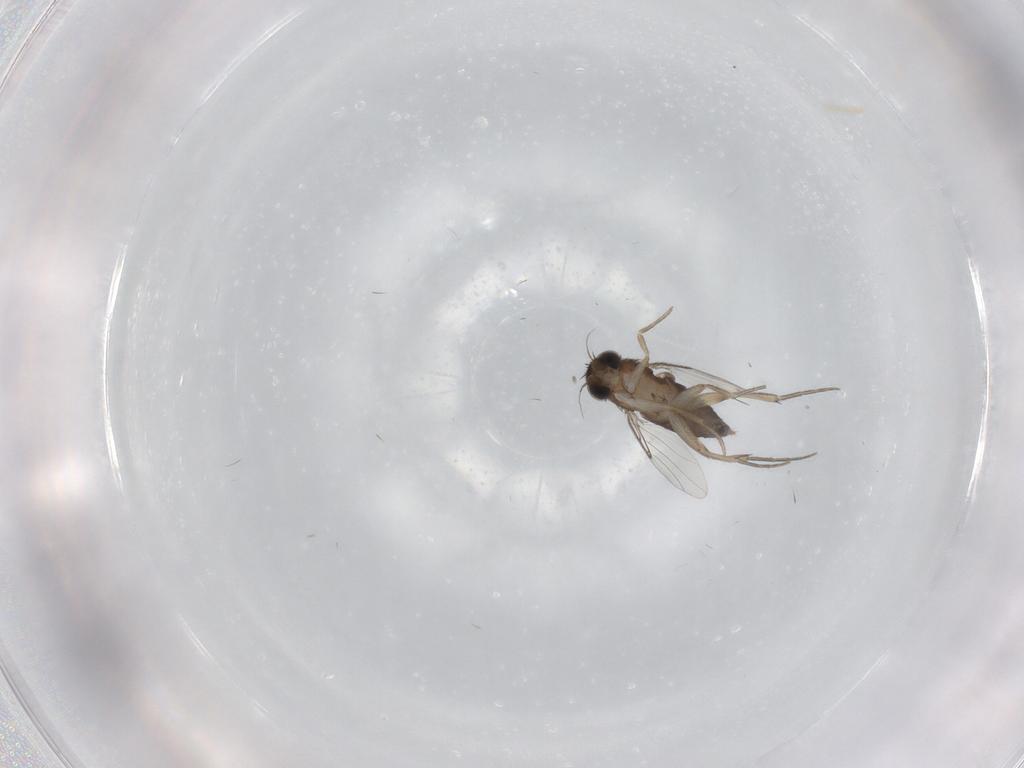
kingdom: Animalia
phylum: Arthropoda
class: Insecta
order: Diptera
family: Phoridae
